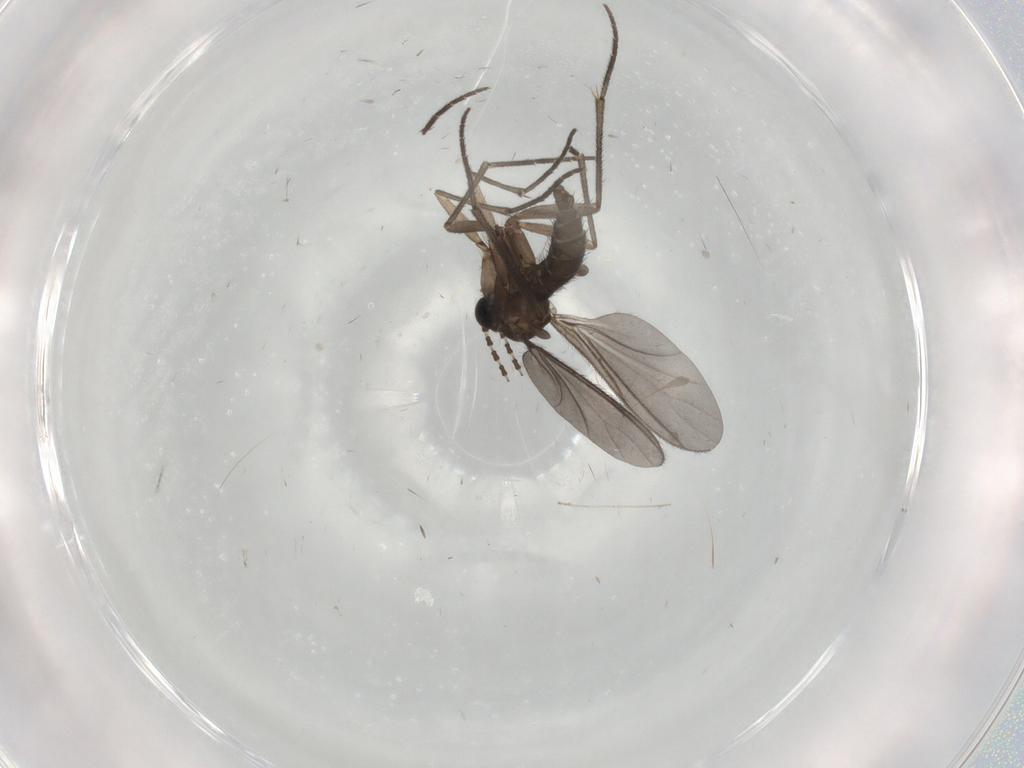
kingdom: Animalia
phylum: Arthropoda
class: Insecta
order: Diptera
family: Sciaridae
